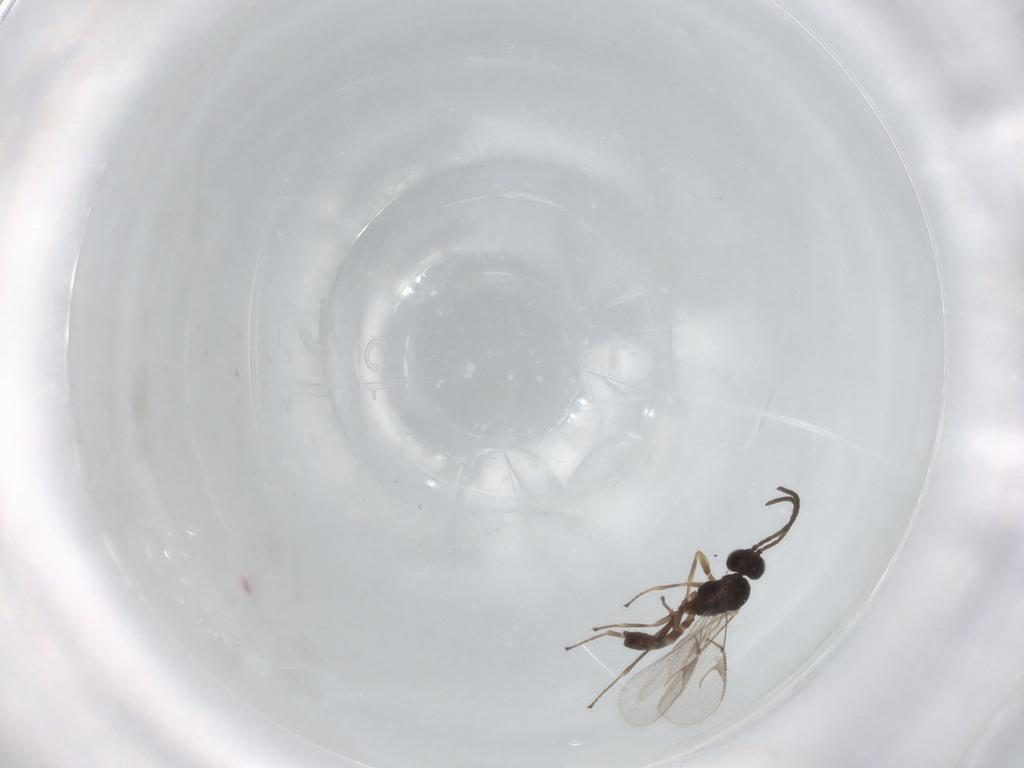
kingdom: Animalia
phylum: Arthropoda
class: Insecta
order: Hymenoptera
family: Braconidae
